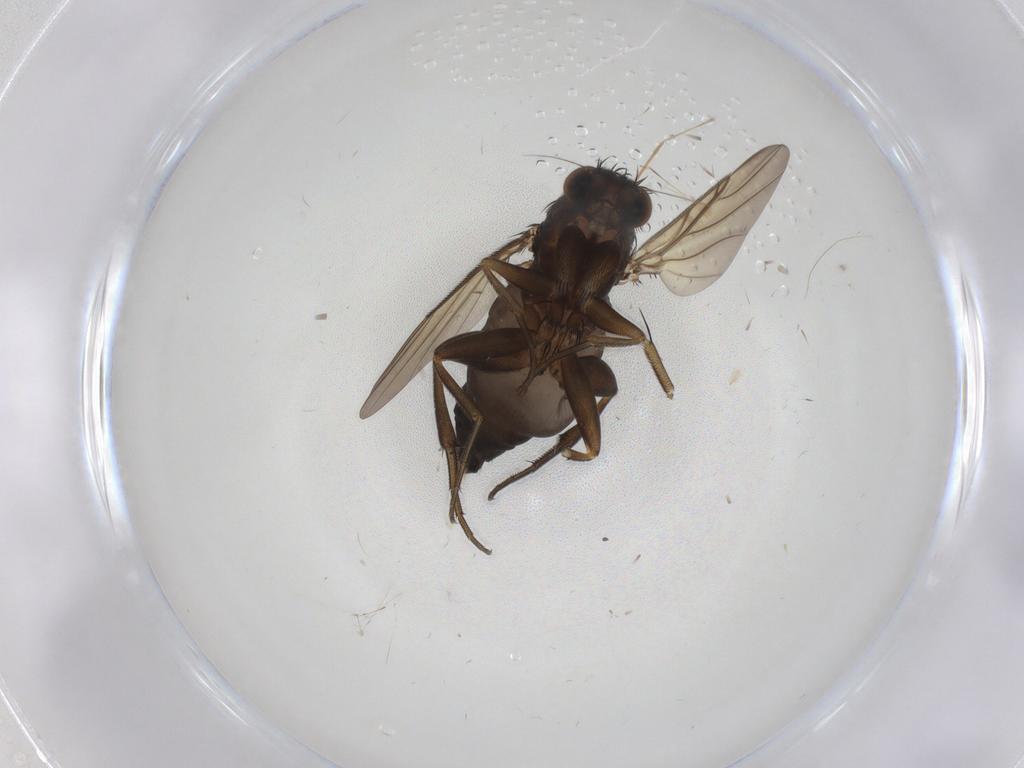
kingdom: Animalia
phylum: Arthropoda
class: Insecta
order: Diptera
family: Phoridae
